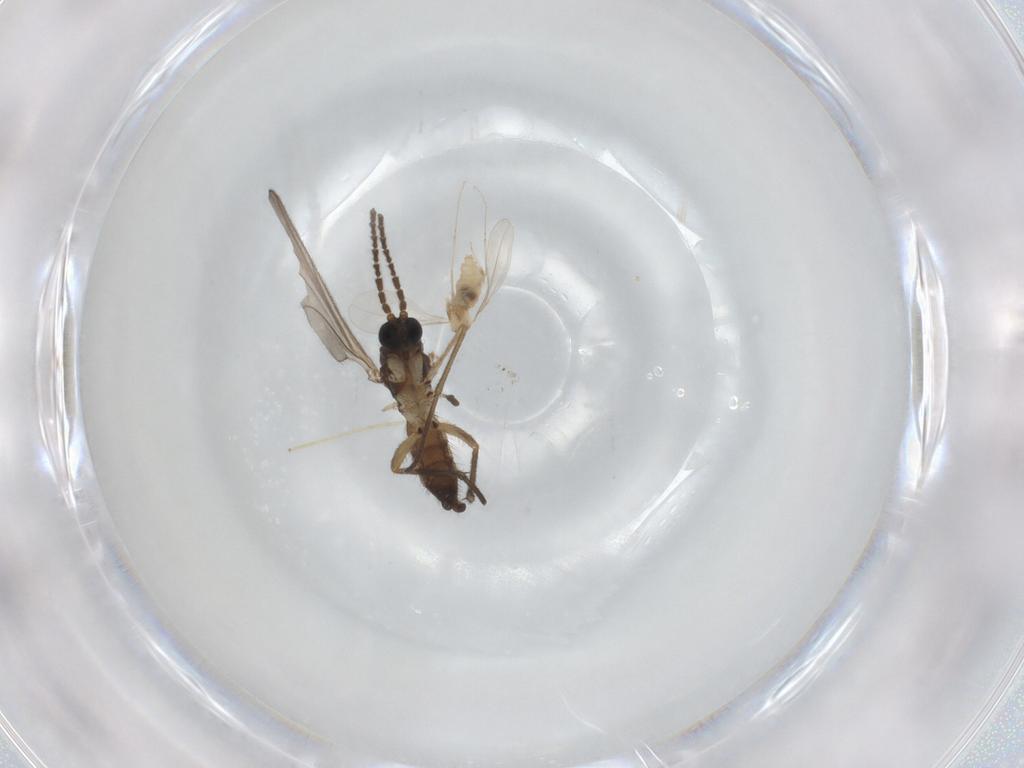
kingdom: Animalia
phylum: Arthropoda
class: Insecta
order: Diptera
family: Sciaridae
